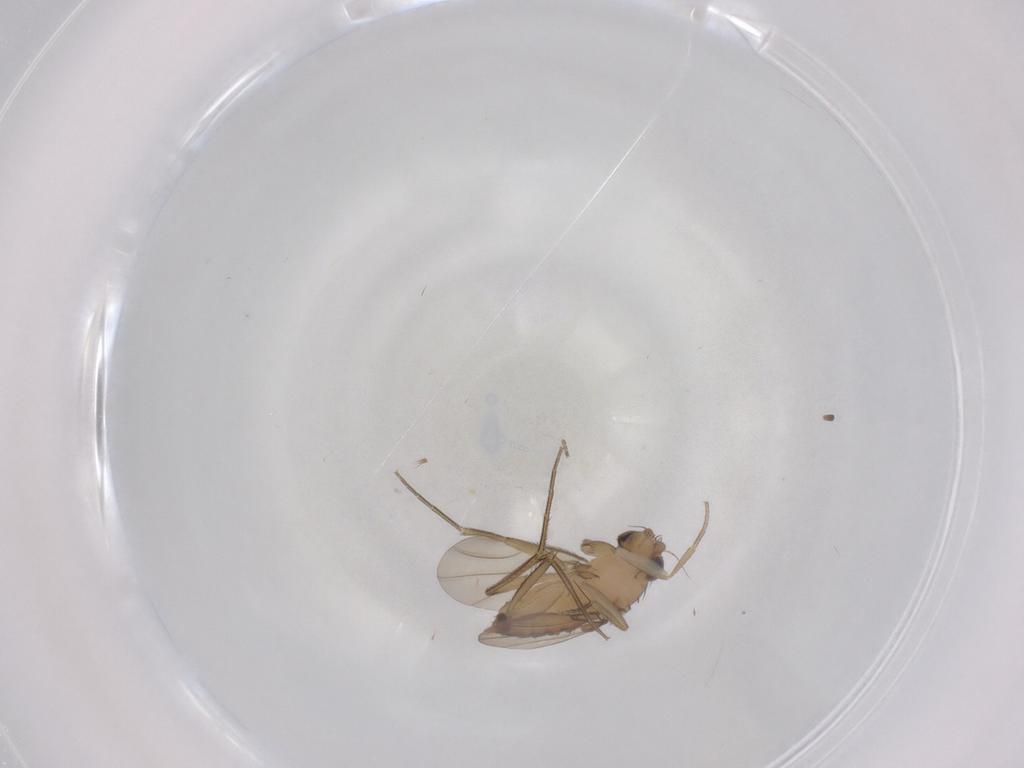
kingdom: Animalia
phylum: Arthropoda
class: Insecta
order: Diptera
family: Phoridae
